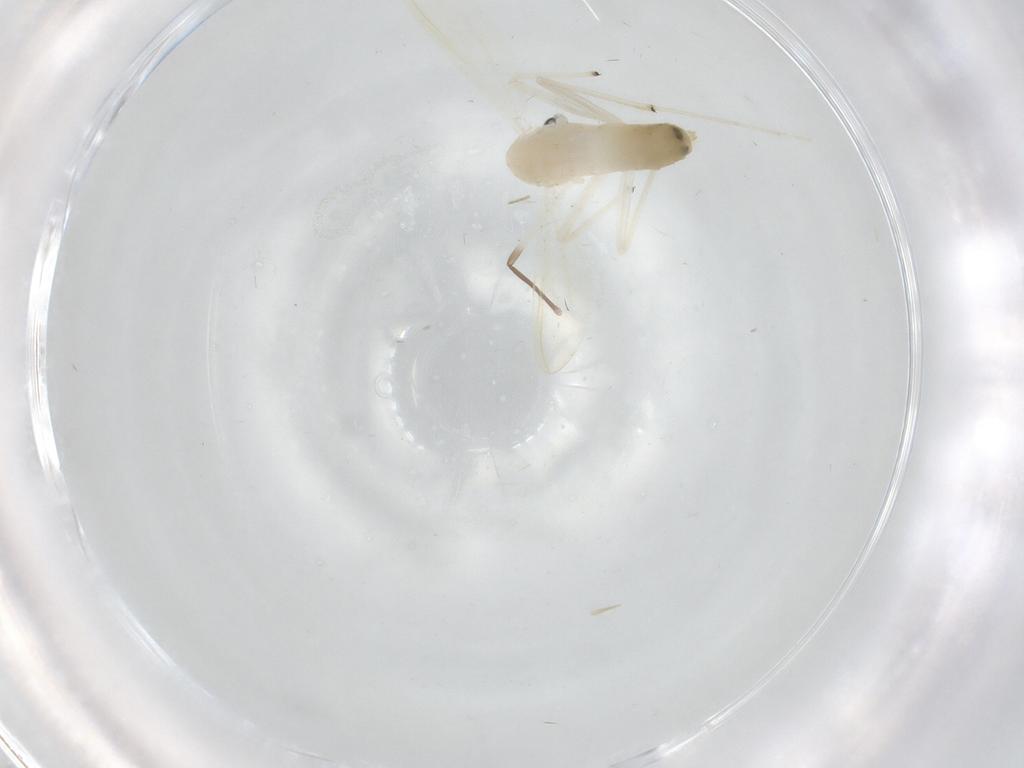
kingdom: Animalia
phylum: Arthropoda
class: Insecta
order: Diptera
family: Chironomidae
